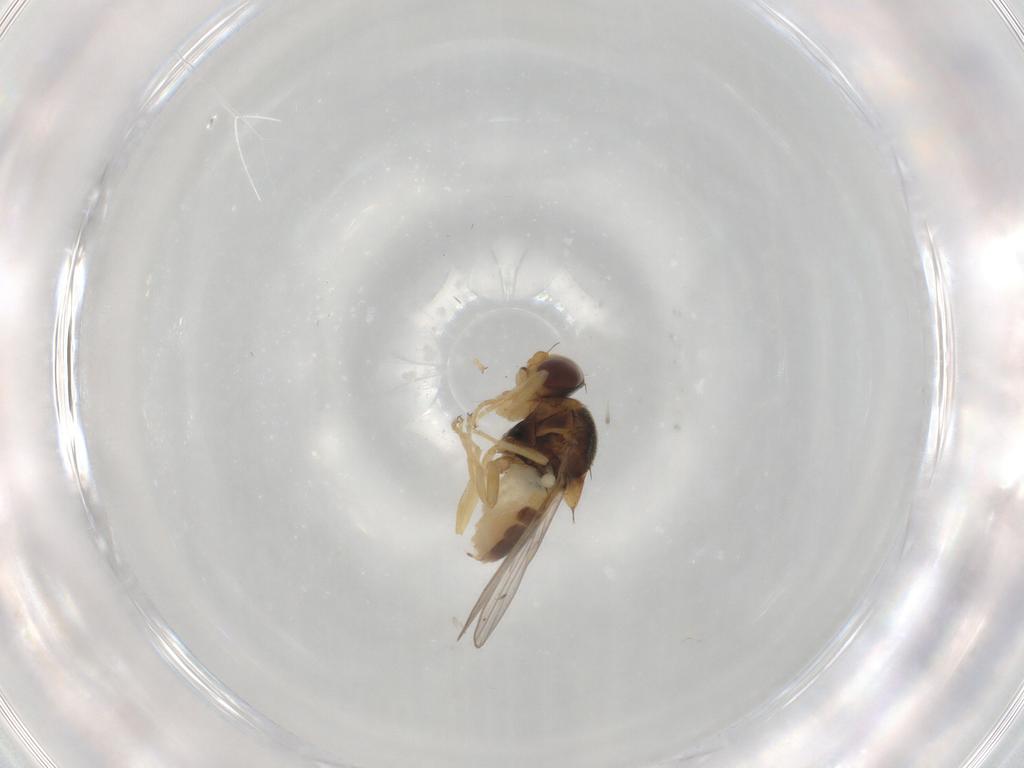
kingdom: Animalia
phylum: Arthropoda
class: Insecta
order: Diptera
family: Chloropidae
